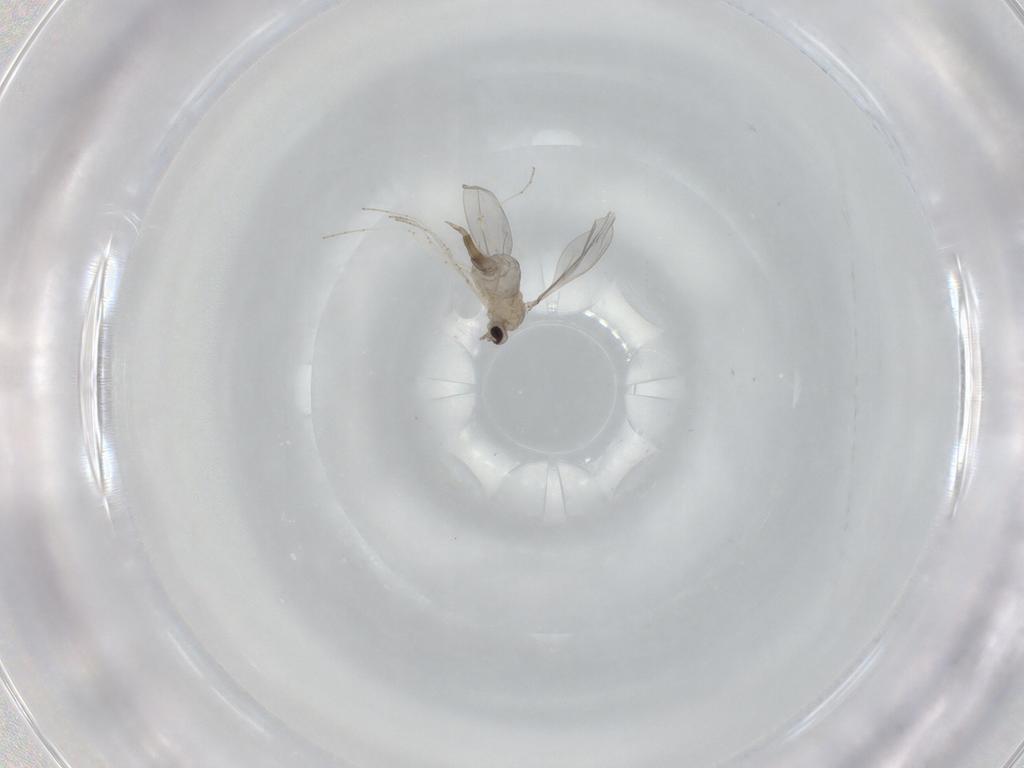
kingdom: Animalia
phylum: Arthropoda
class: Insecta
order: Diptera
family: Cecidomyiidae
